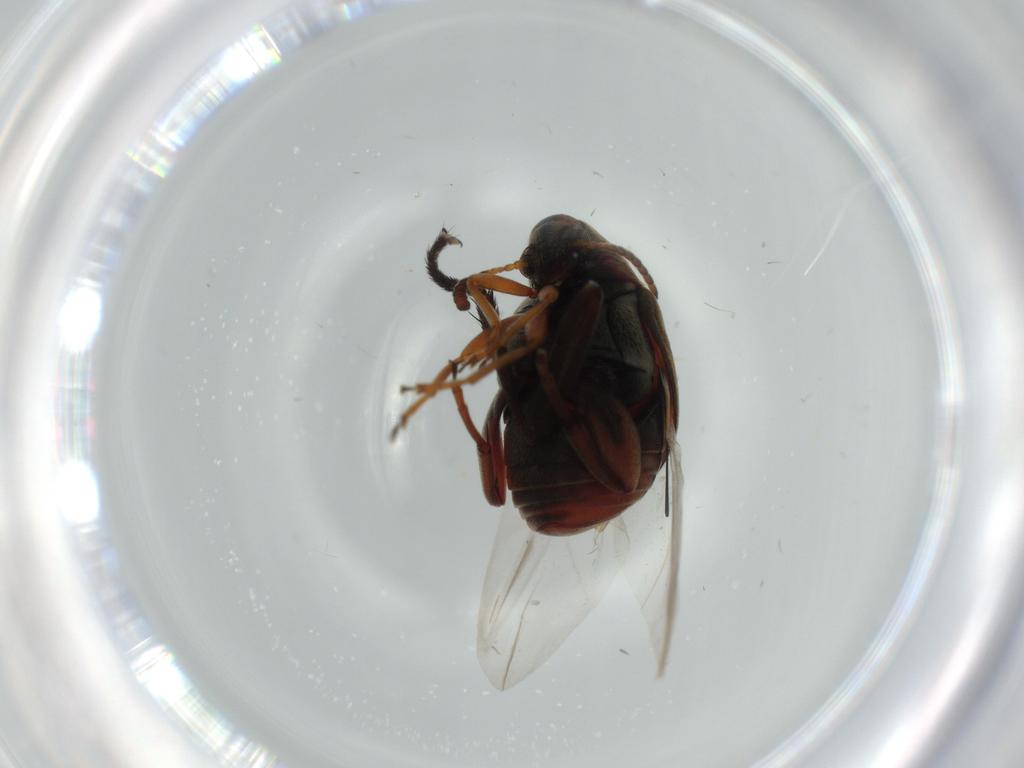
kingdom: Animalia
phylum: Arthropoda
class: Insecta
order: Coleoptera
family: Chrysomelidae
